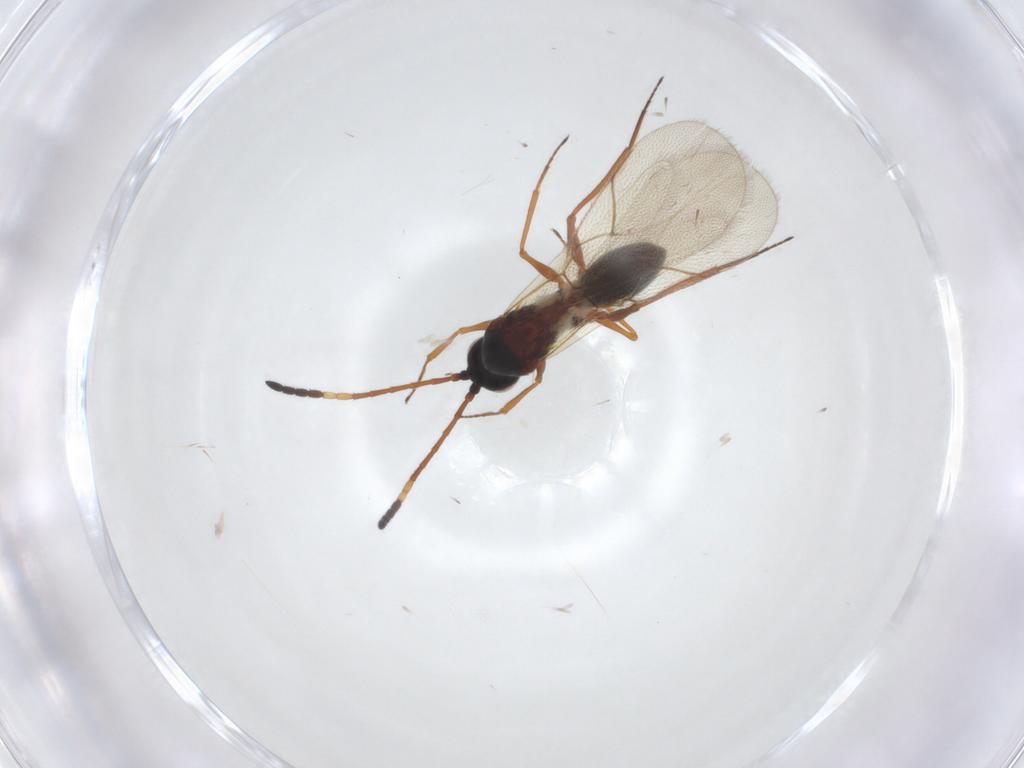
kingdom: Animalia
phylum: Arthropoda
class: Insecta
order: Hymenoptera
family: Figitidae
